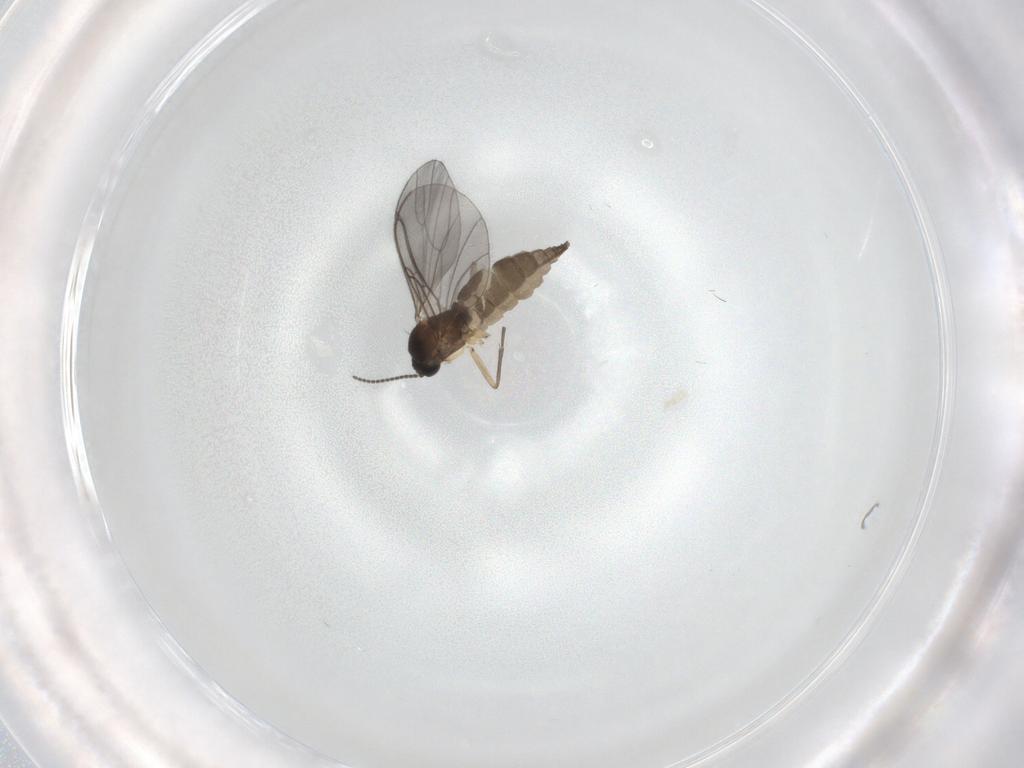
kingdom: Animalia
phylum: Arthropoda
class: Insecta
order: Diptera
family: Sciaridae
